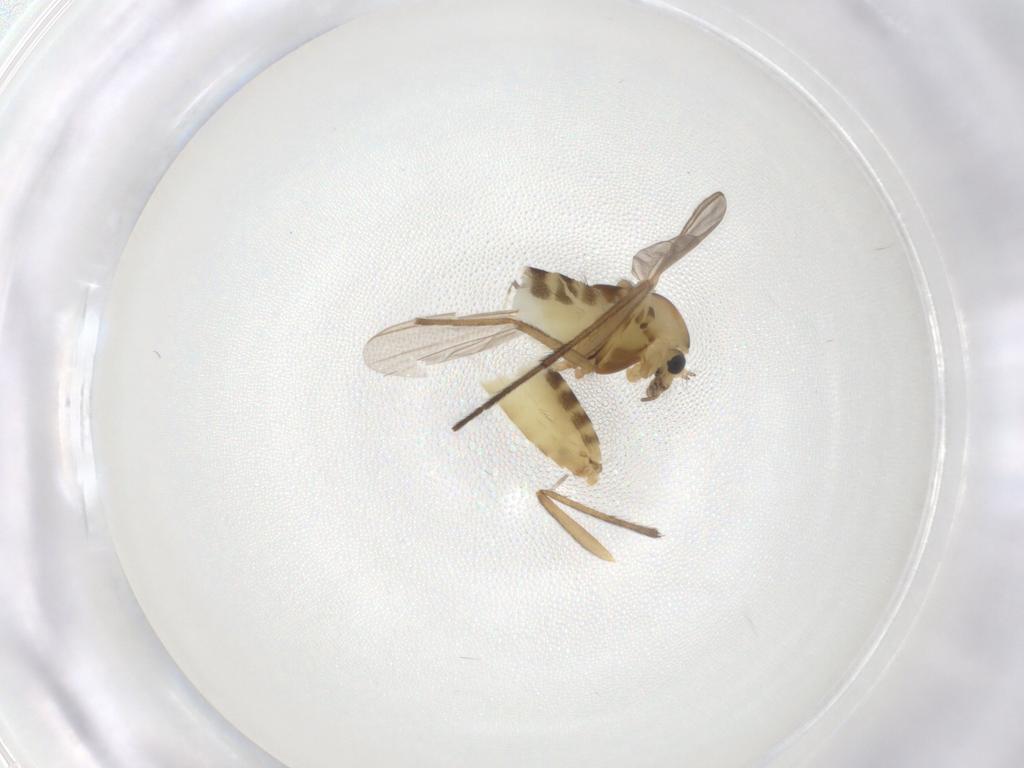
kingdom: Animalia
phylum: Arthropoda
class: Insecta
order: Diptera
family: Chironomidae
